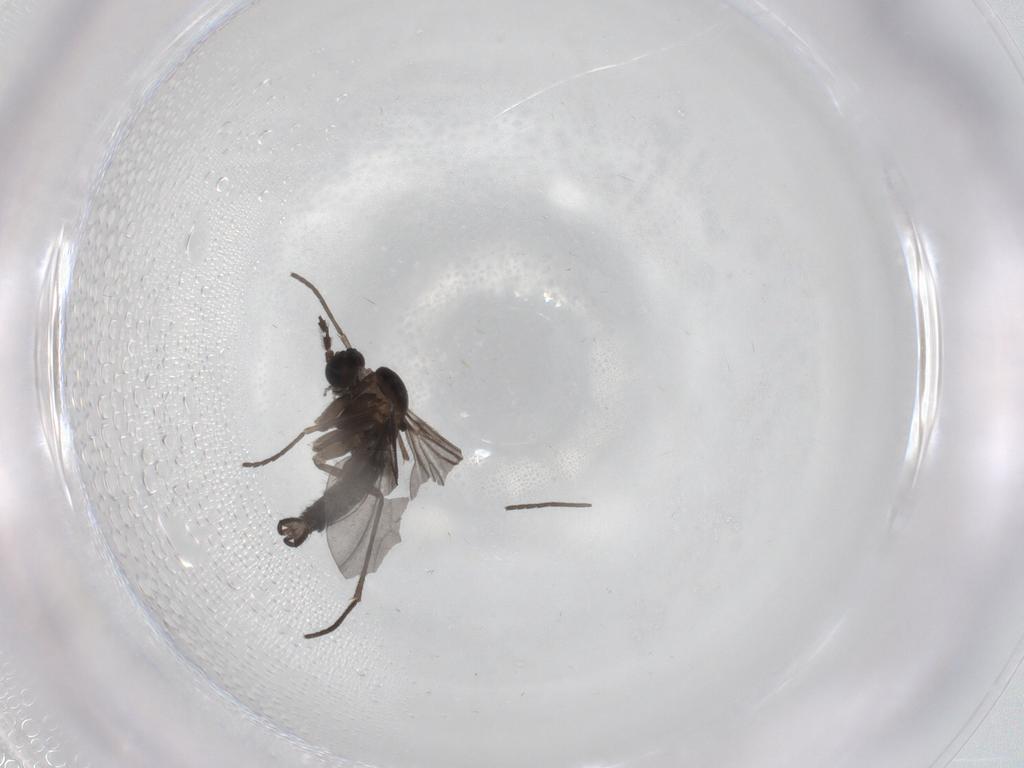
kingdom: Animalia
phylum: Arthropoda
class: Insecta
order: Diptera
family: Sciaridae
